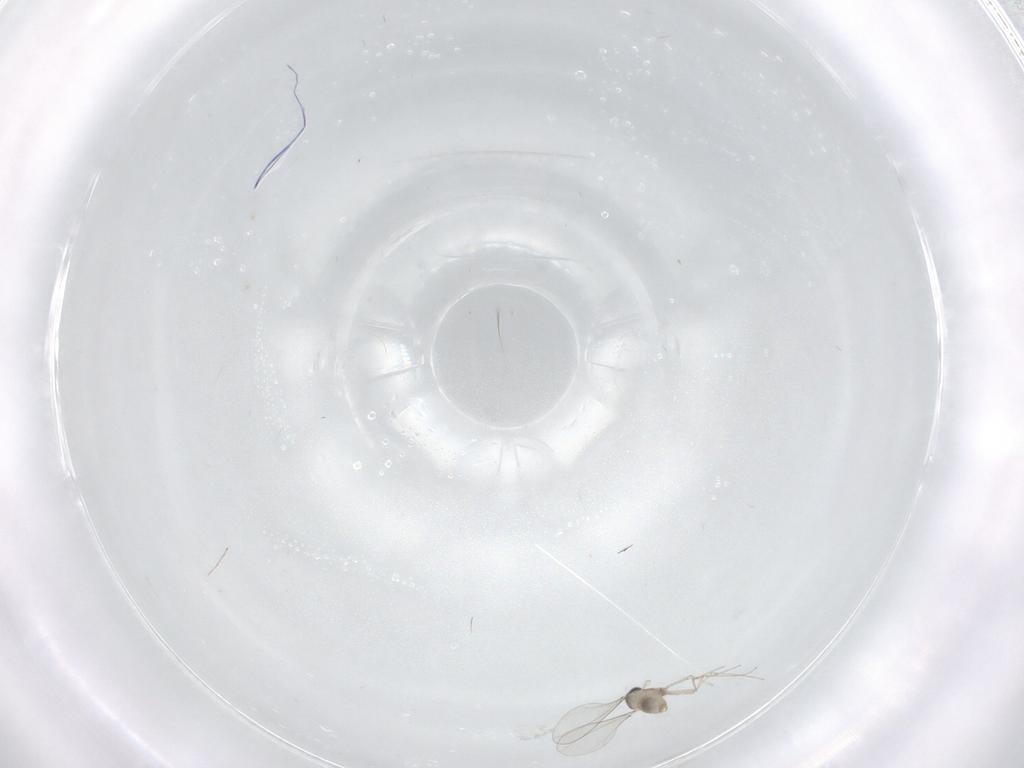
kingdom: Animalia
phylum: Arthropoda
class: Insecta
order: Diptera
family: Cecidomyiidae
